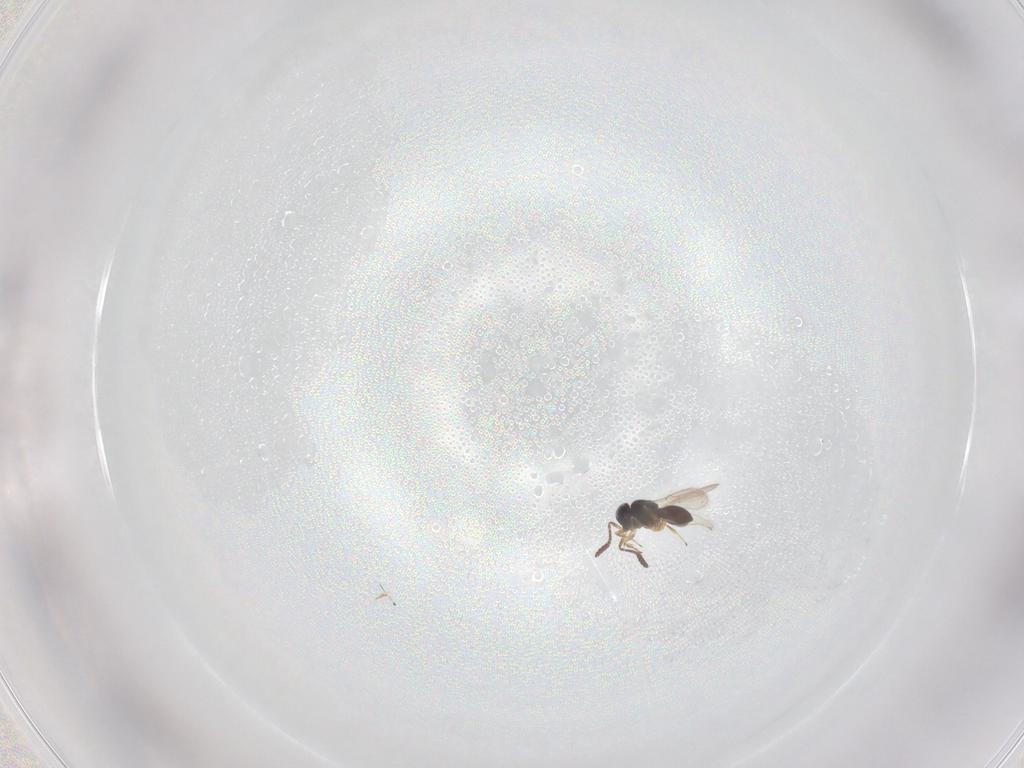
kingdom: Animalia
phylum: Arthropoda
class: Insecta
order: Hymenoptera
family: Scelionidae
